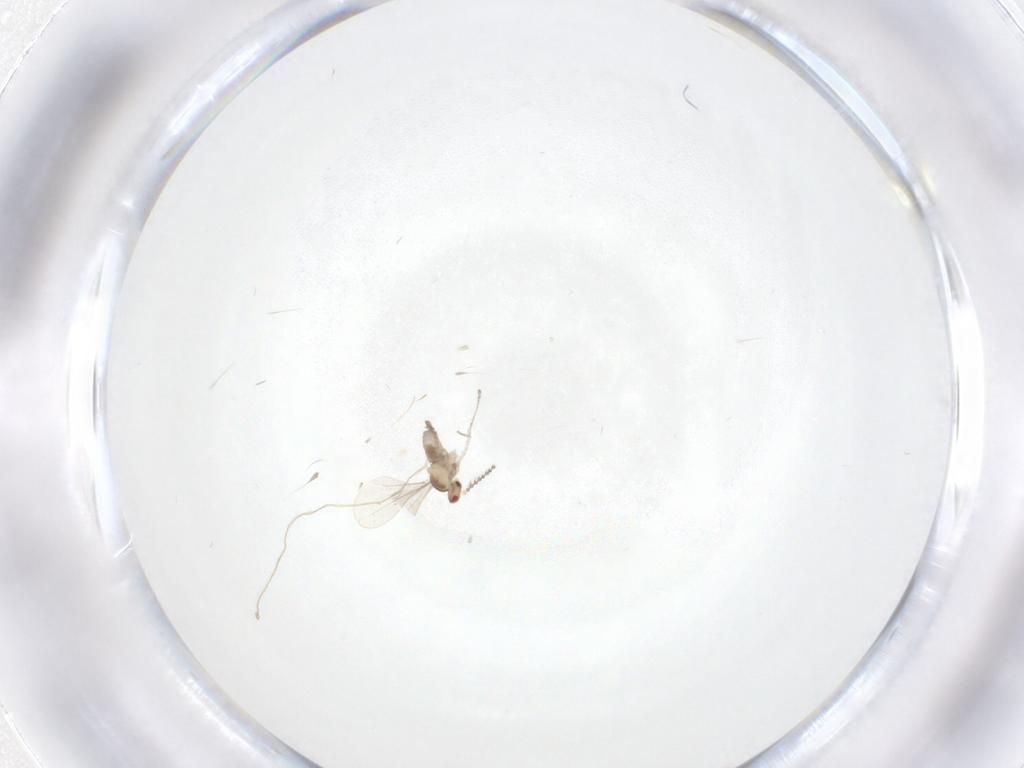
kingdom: Animalia
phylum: Arthropoda
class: Insecta
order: Diptera
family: Cecidomyiidae
